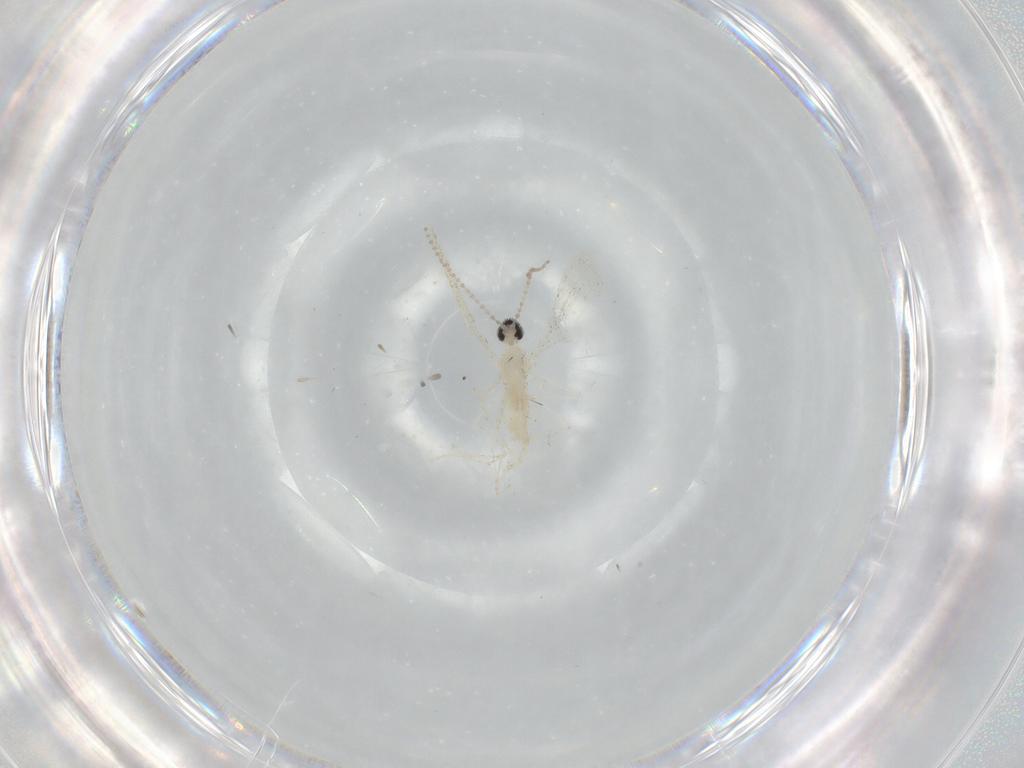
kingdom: Animalia
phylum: Arthropoda
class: Insecta
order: Diptera
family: Cecidomyiidae
